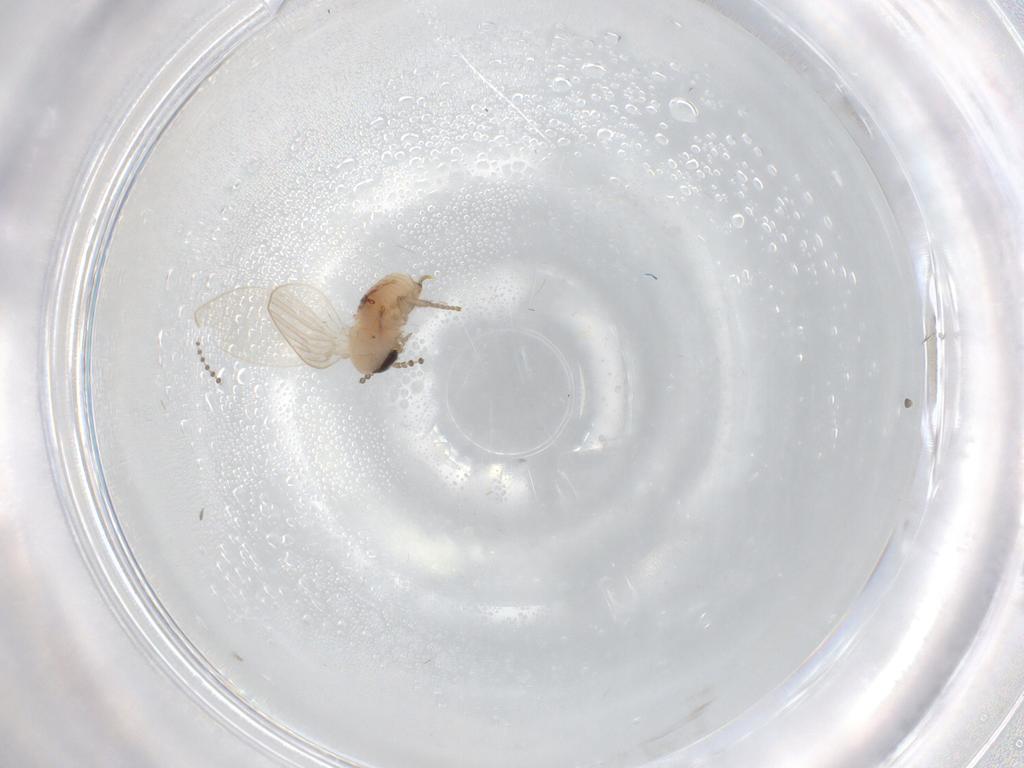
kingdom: Animalia
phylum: Arthropoda
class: Insecta
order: Diptera
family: Psychodidae
